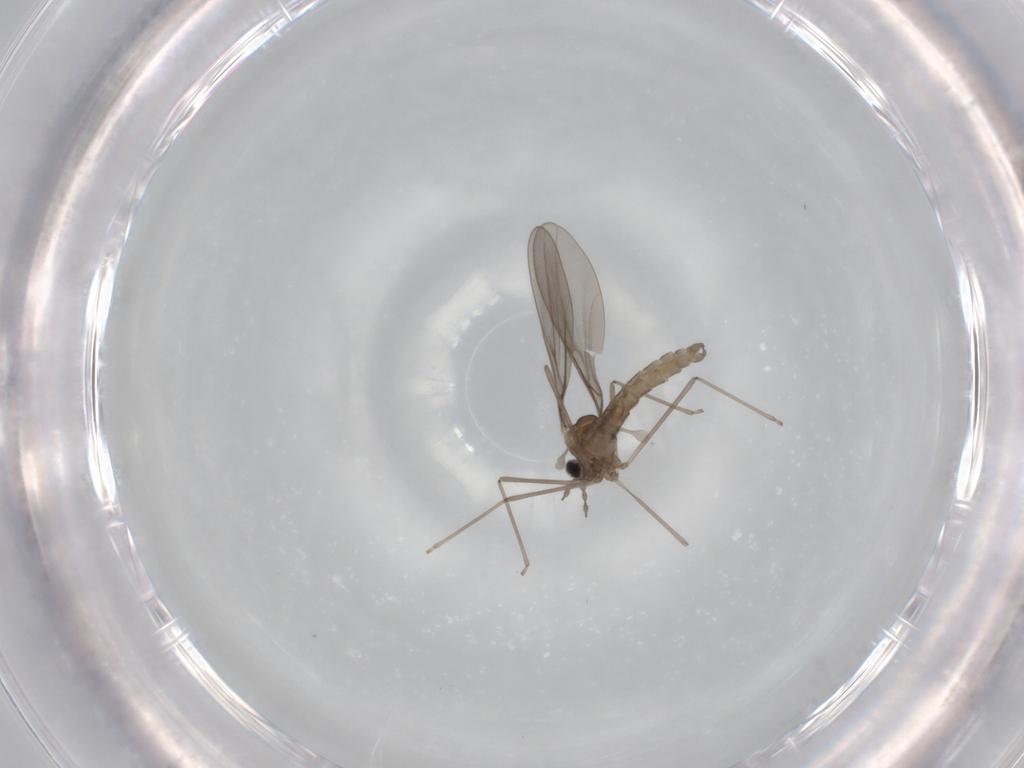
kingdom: Animalia
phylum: Arthropoda
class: Insecta
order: Diptera
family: Cecidomyiidae
